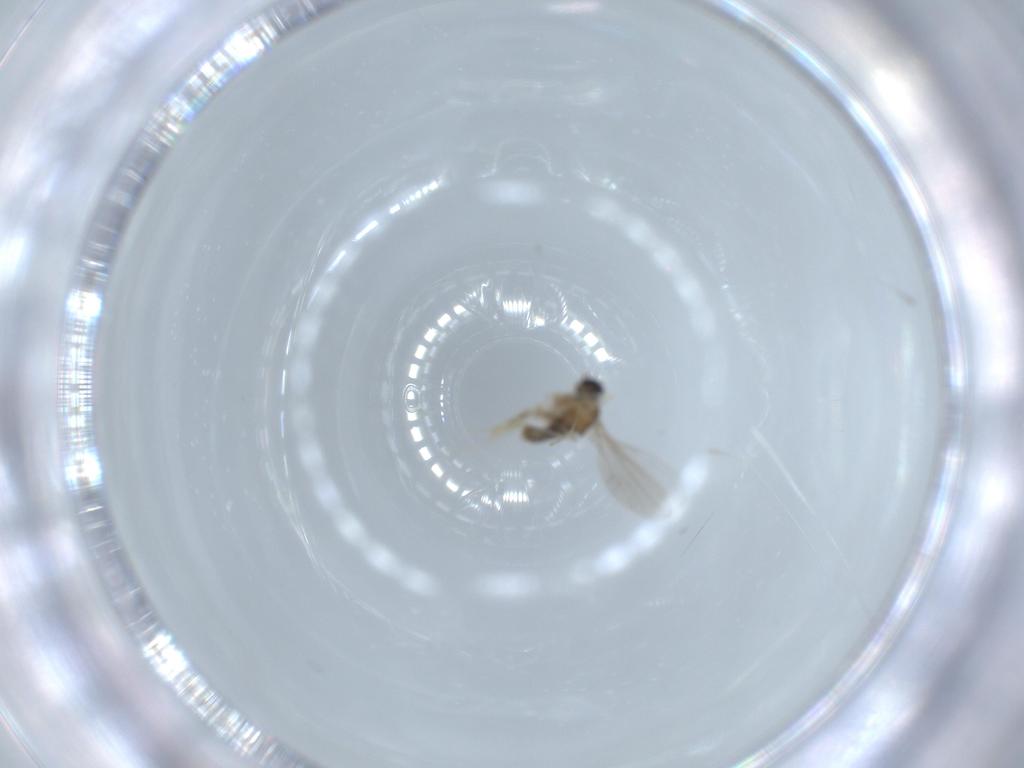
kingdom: Animalia
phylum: Arthropoda
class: Insecta
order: Diptera
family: Cecidomyiidae
